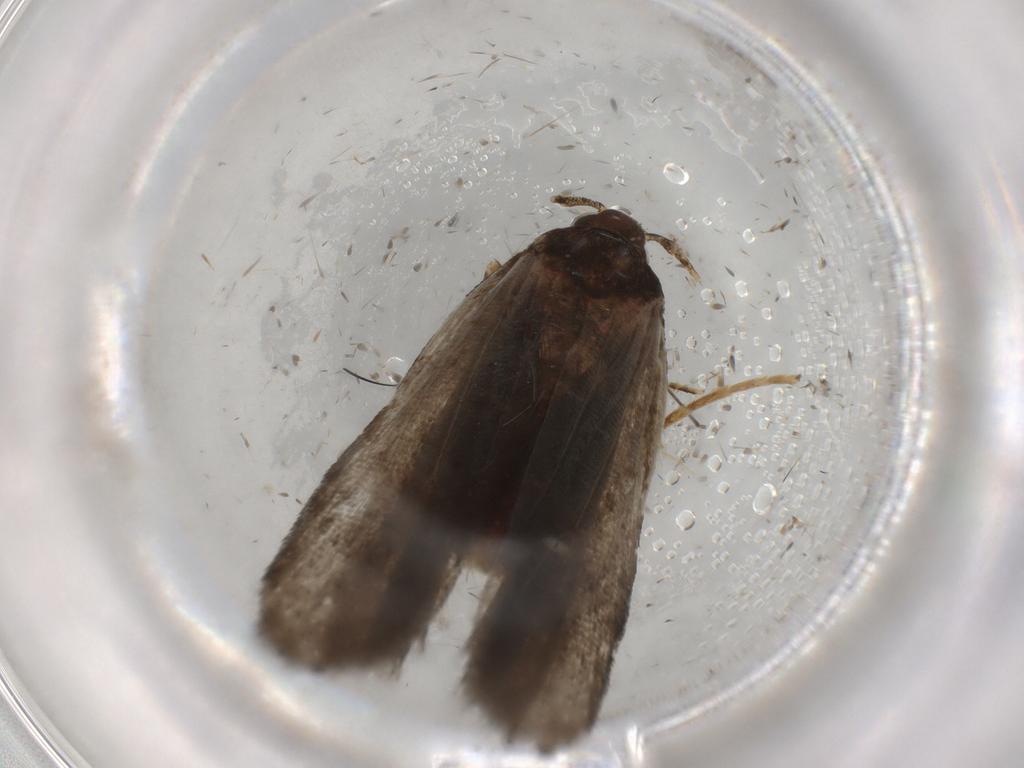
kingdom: Animalia
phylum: Arthropoda
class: Insecta
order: Lepidoptera
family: Autostichidae
